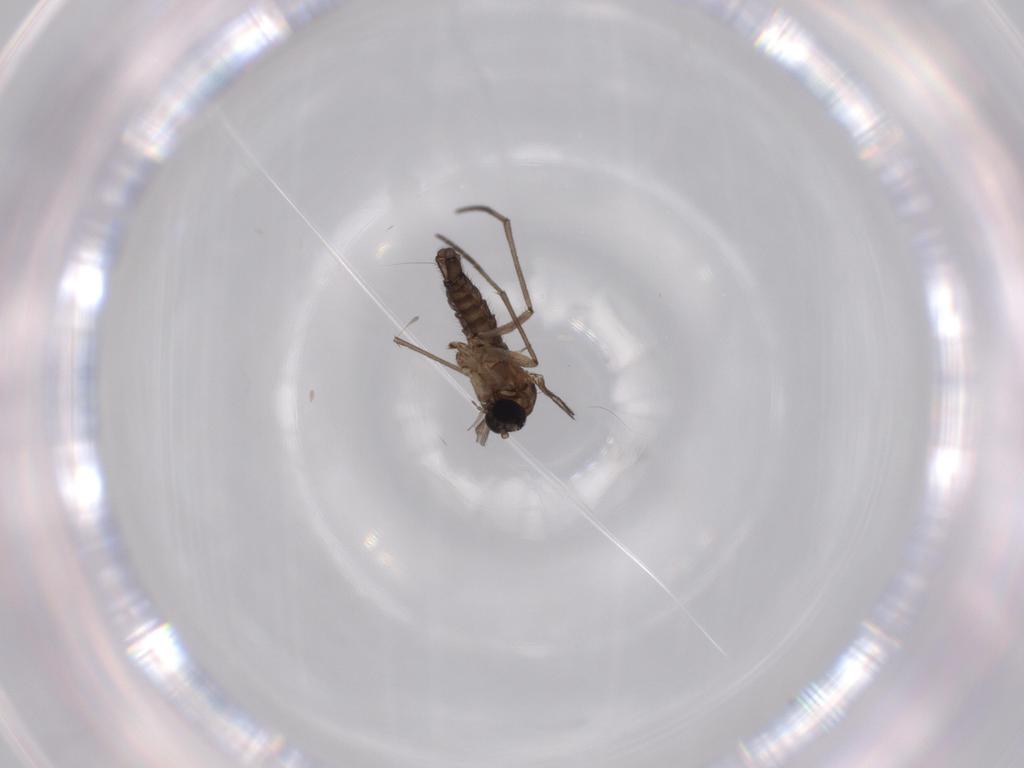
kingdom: Animalia
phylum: Arthropoda
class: Insecta
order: Diptera
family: Sciaridae
